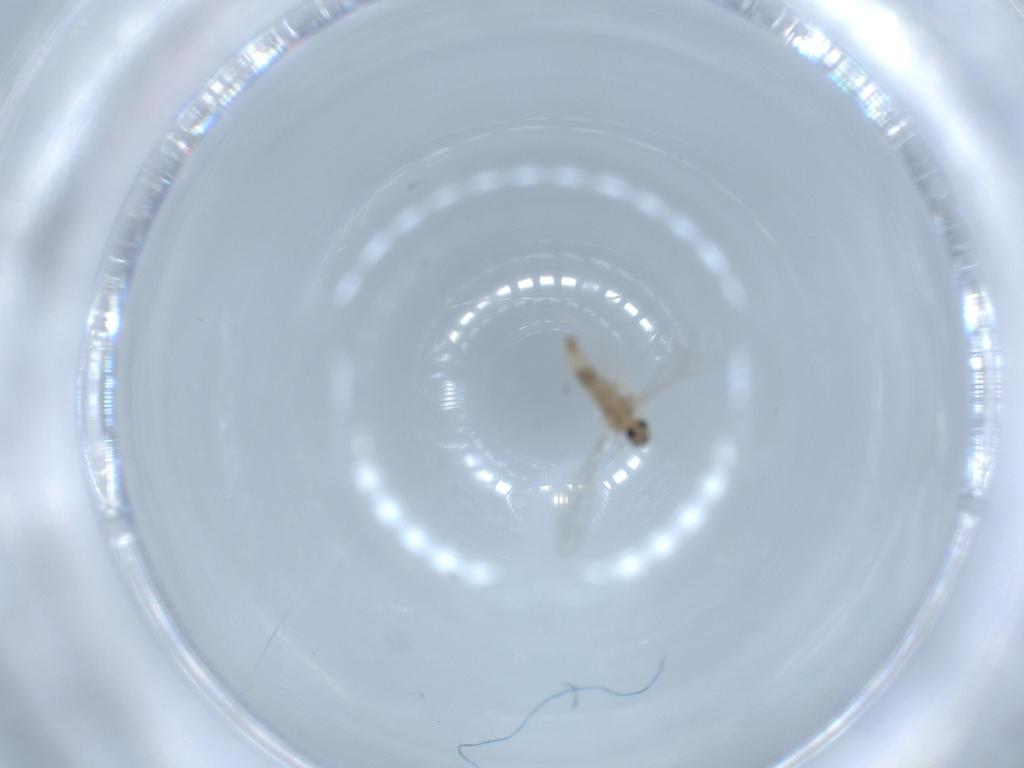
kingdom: Animalia
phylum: Arthropoda
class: Insecta
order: Diptera
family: Cecidomyiidae
